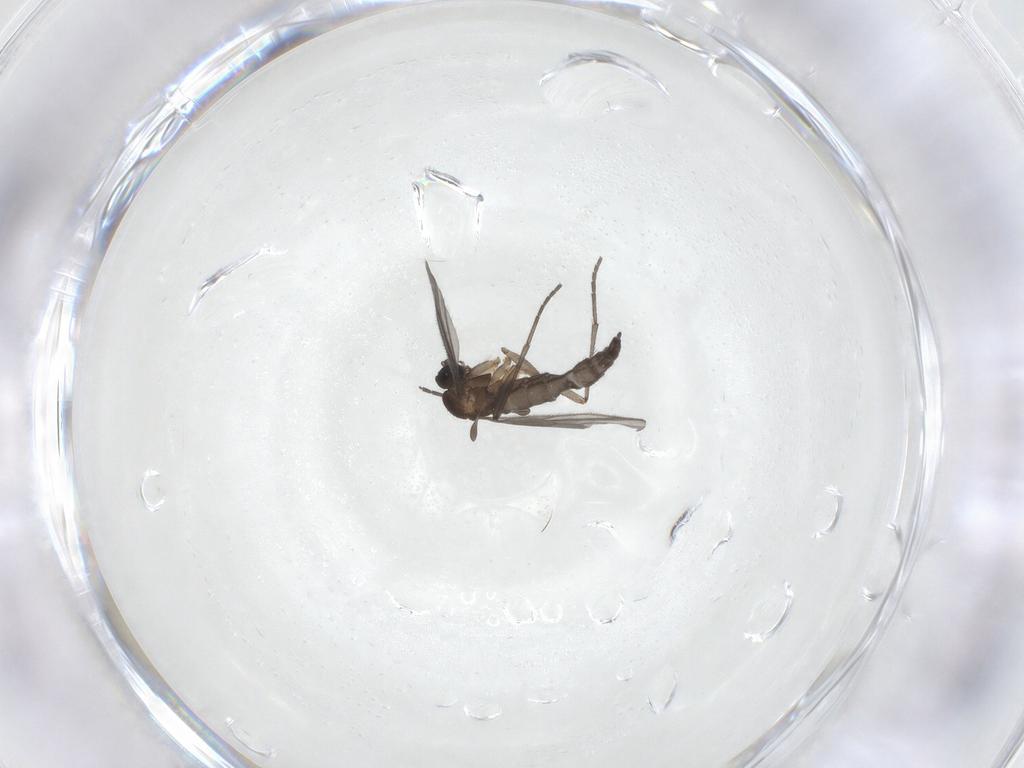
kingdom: Animalia
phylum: Arthropoda
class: Insecta
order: Diptera
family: Sciaridae
